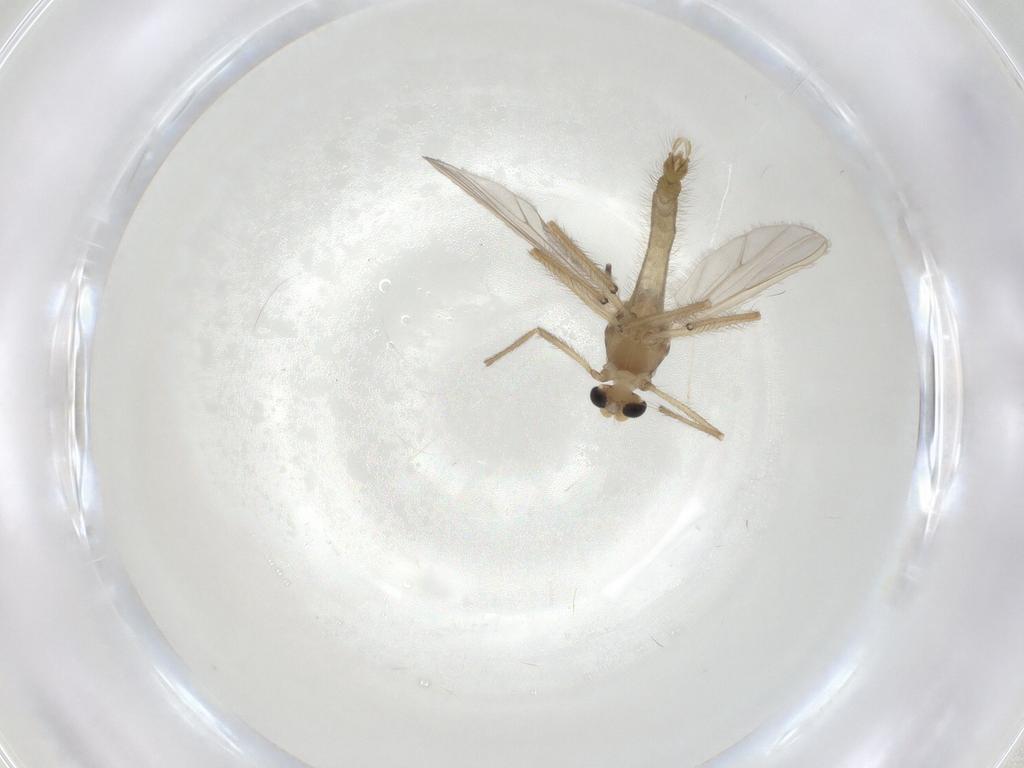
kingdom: Animalia
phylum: Arthropoda
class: Insecta
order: Diptera
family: Chironomidae
